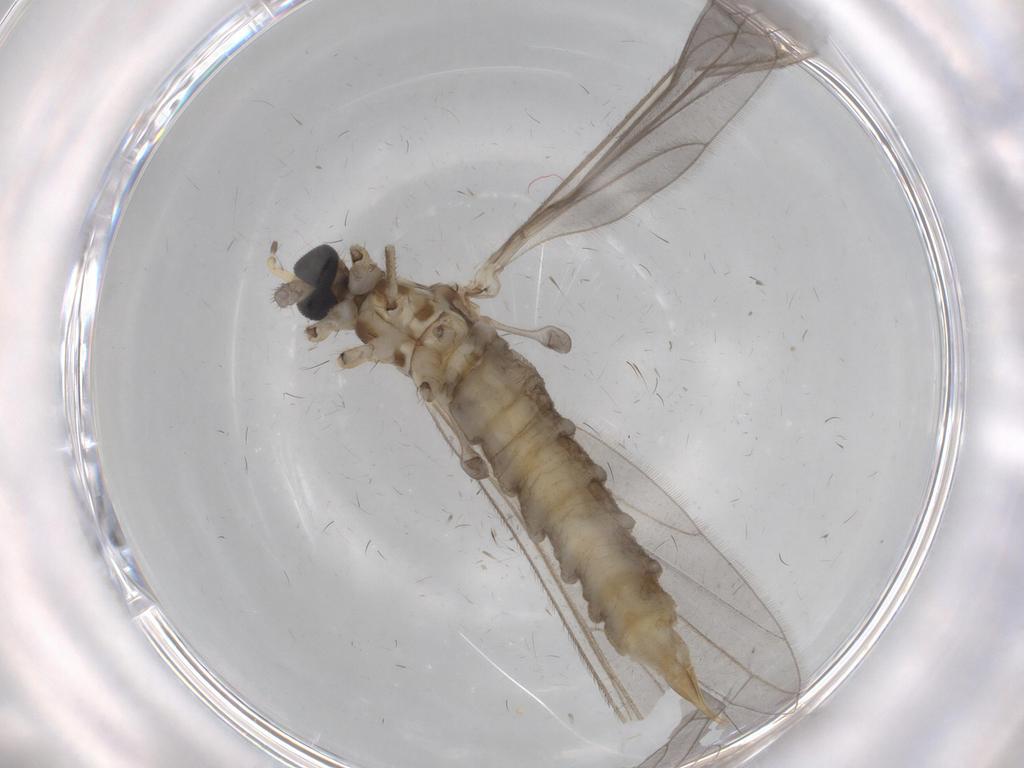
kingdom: Animalia
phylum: Arthropoda
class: Insecta
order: Diptera
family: Limoniidae
